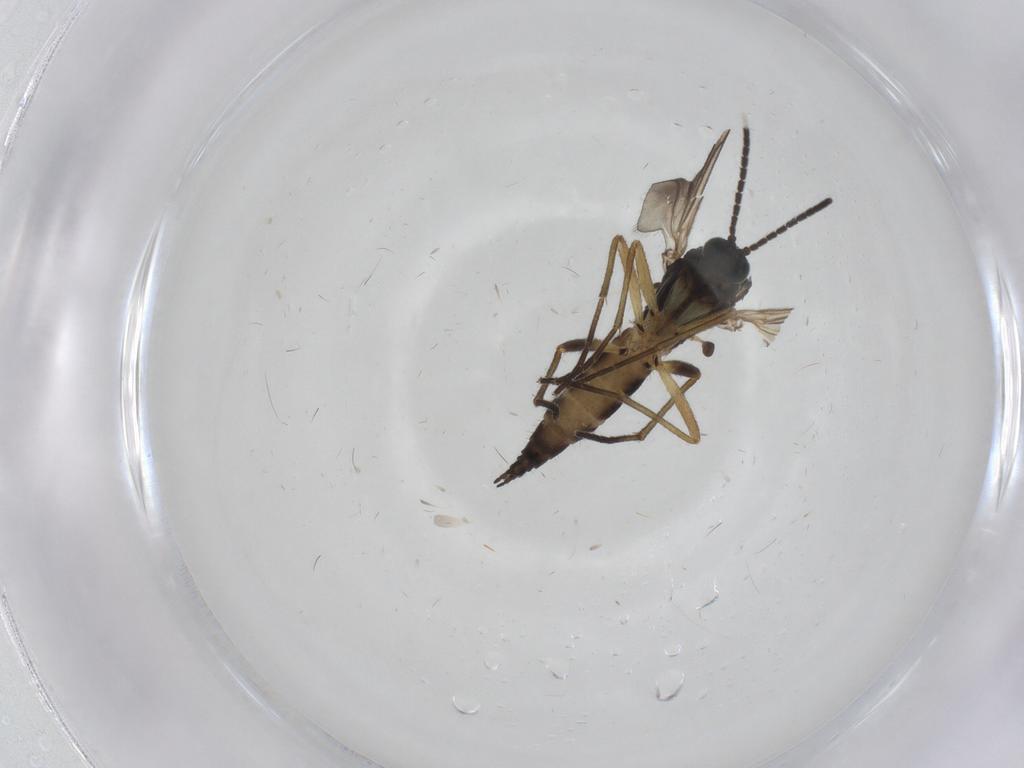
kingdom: Animalia
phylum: Arthropoda
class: Insecta
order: Diptera
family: Sciaridae
